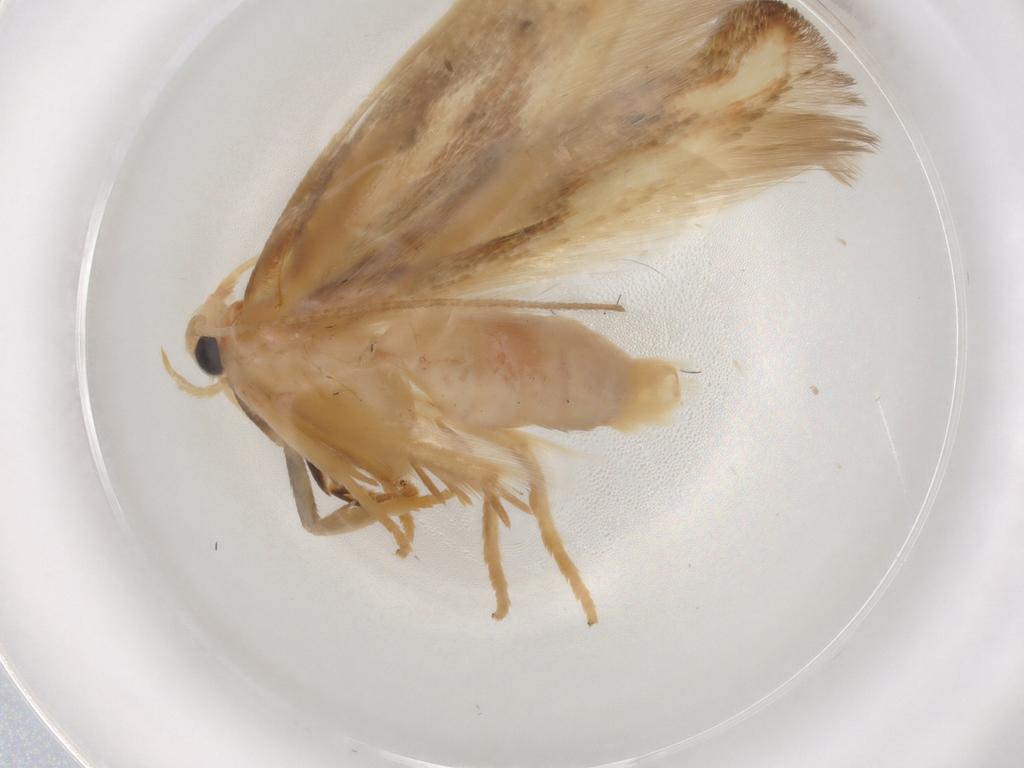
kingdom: Animalia
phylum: Arthropoda
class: Insecta
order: Lepidoptera
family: Geometridae
